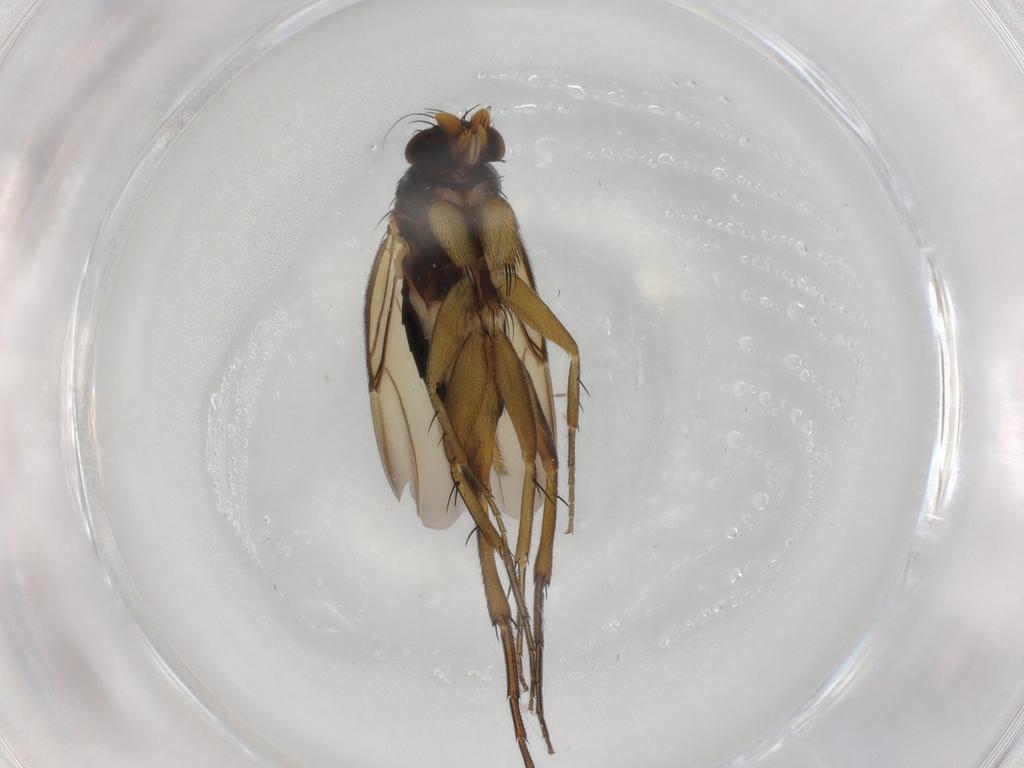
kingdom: Animalia
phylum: Arthropoda
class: Insecta
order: Diptera
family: Phoridae
